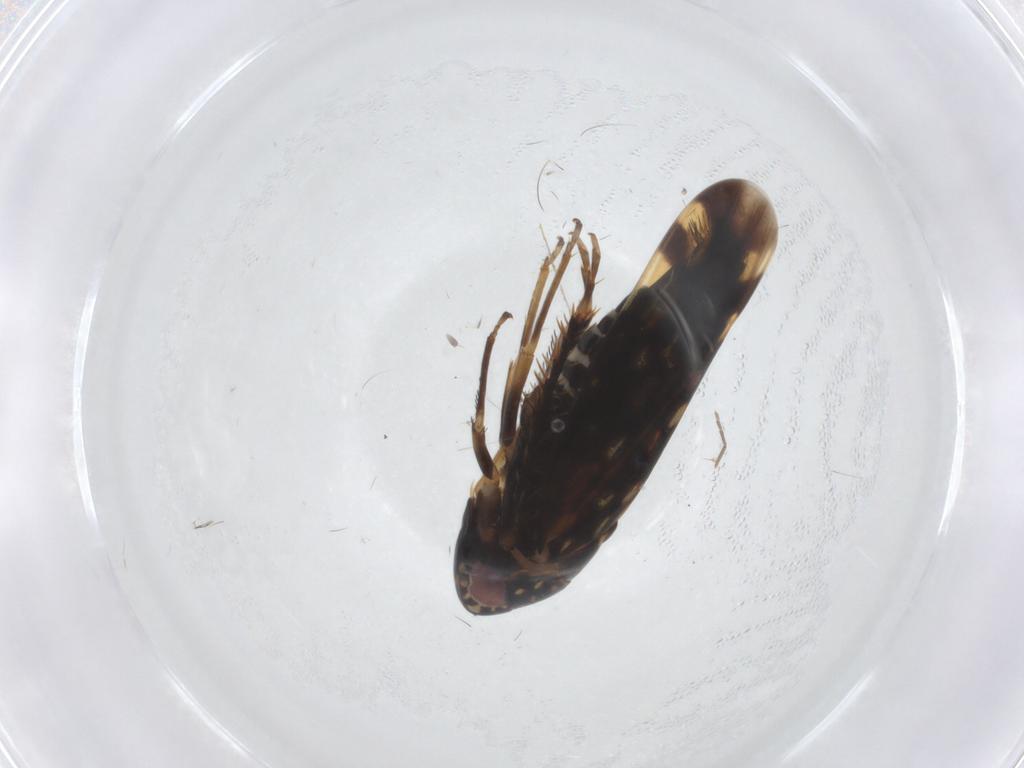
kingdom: Animalia
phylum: Arthropoda
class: Insecta
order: Hemiptera
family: Cicadellidae
